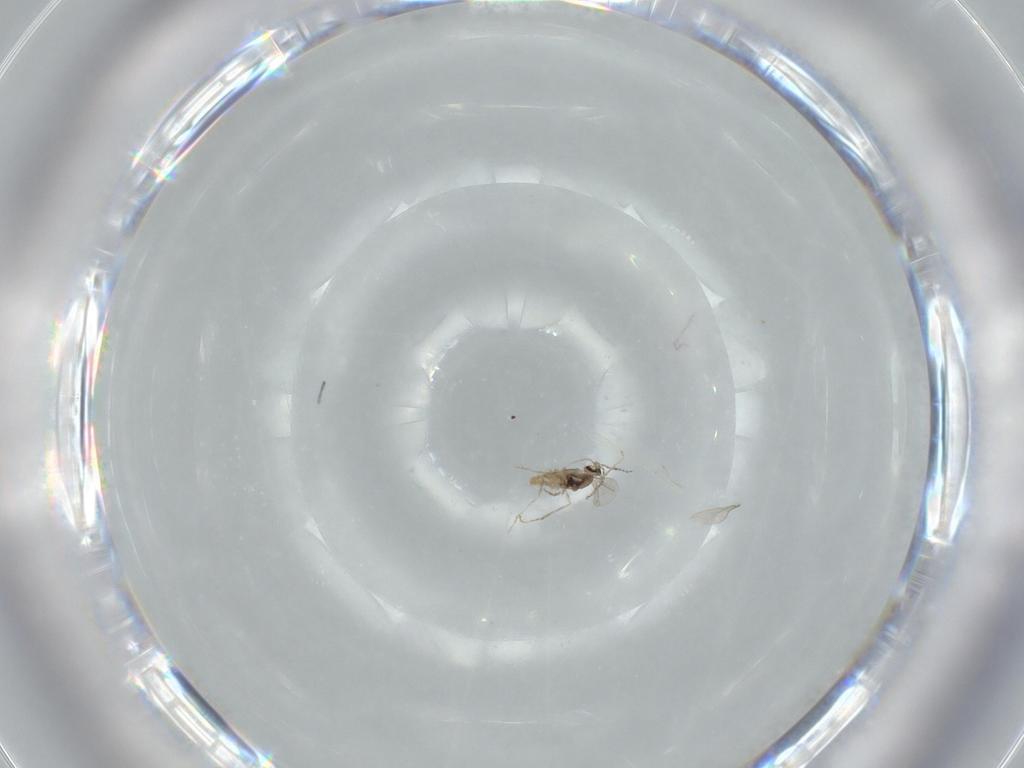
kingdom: Animalia
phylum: Arthropoda
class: Insecta
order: Diptera
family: Cecidomyiidae
